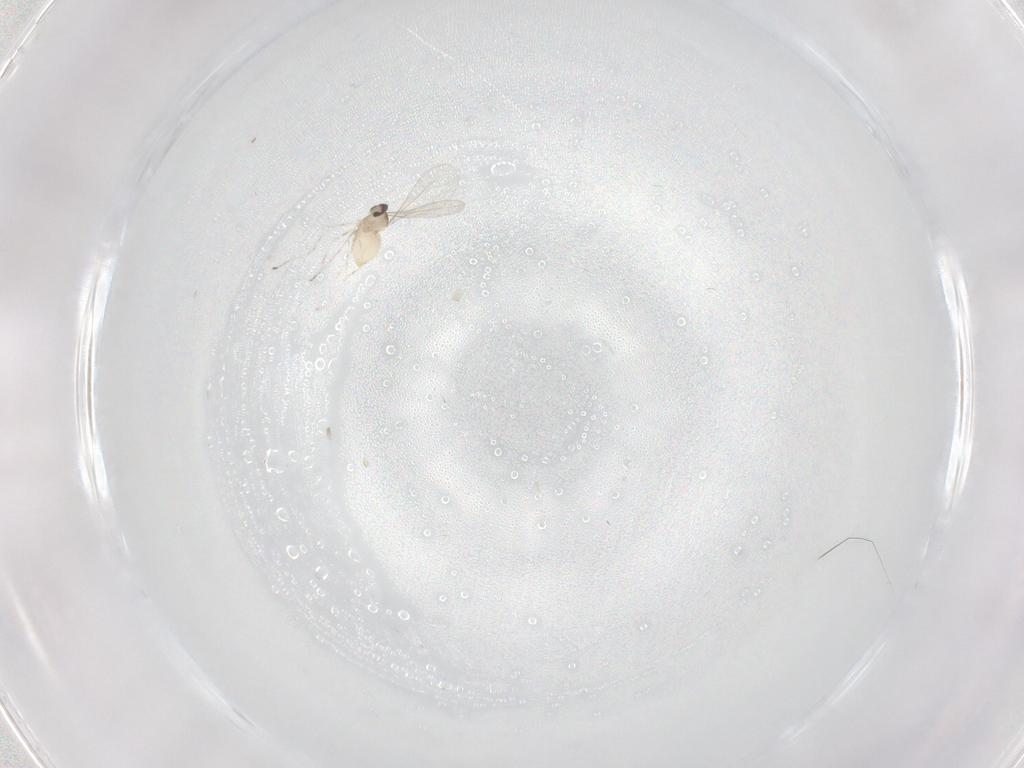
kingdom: Animalia
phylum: Arthropoda
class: Insecta
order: Diptera
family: Cecidomyiidae
